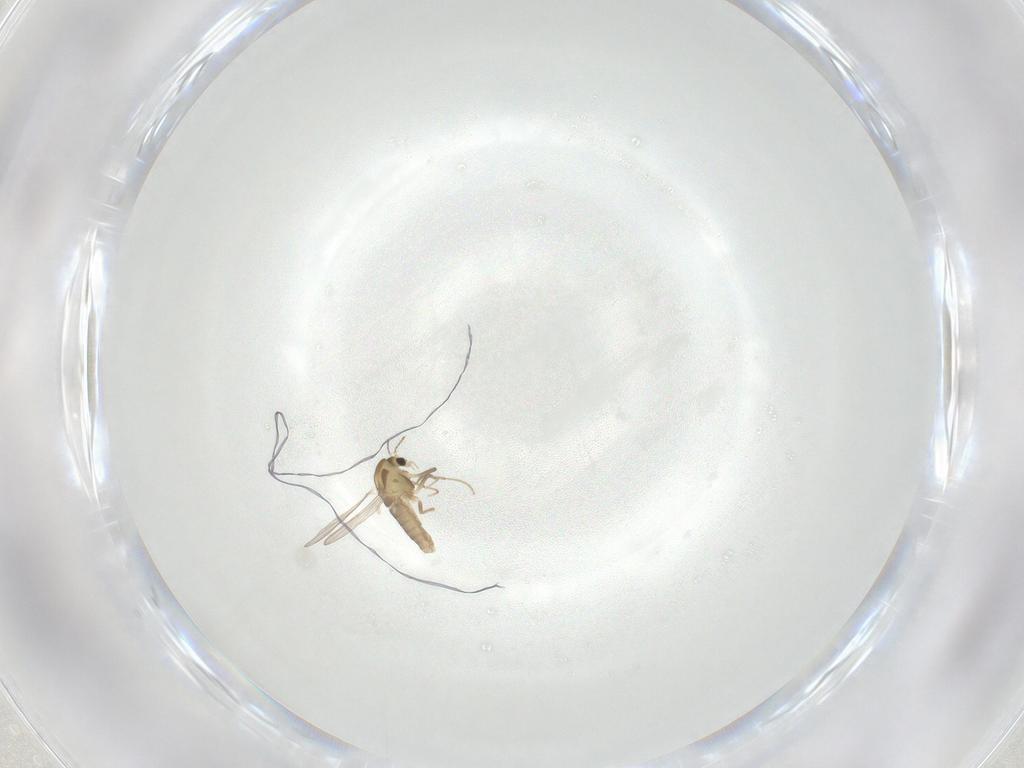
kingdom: Animalia
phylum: Arthropoda
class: Insecta
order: Diptera
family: Chironomidae
